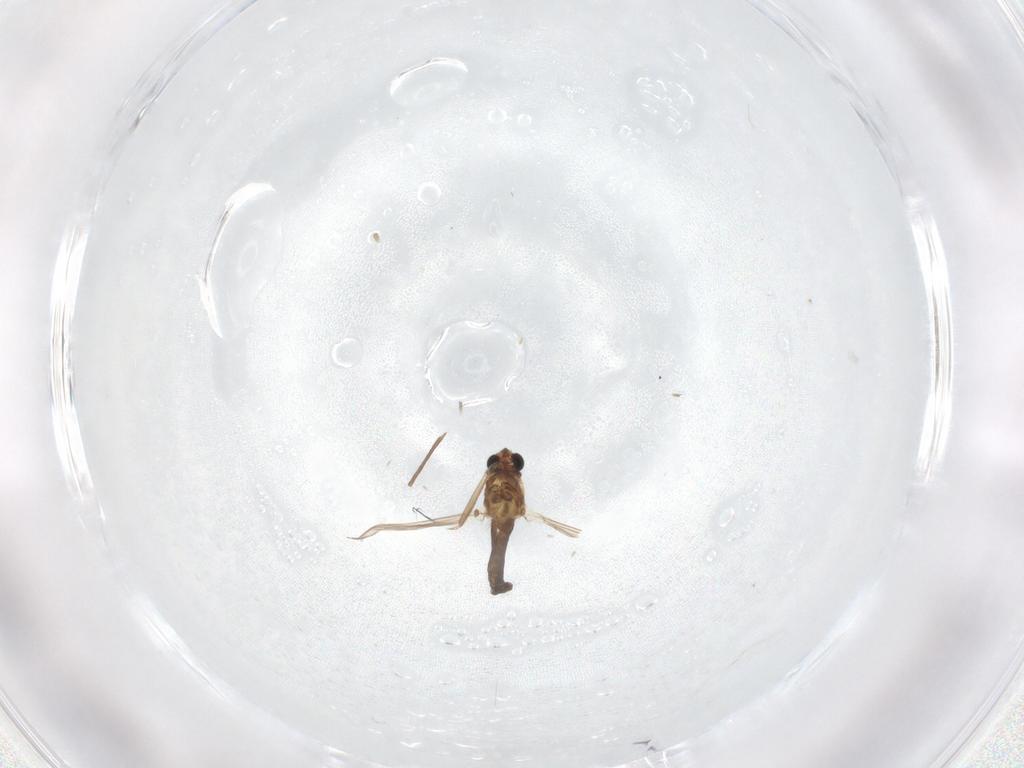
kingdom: Animalia
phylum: Arthropoda
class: Insecta
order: Diptera
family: Chironomidae
